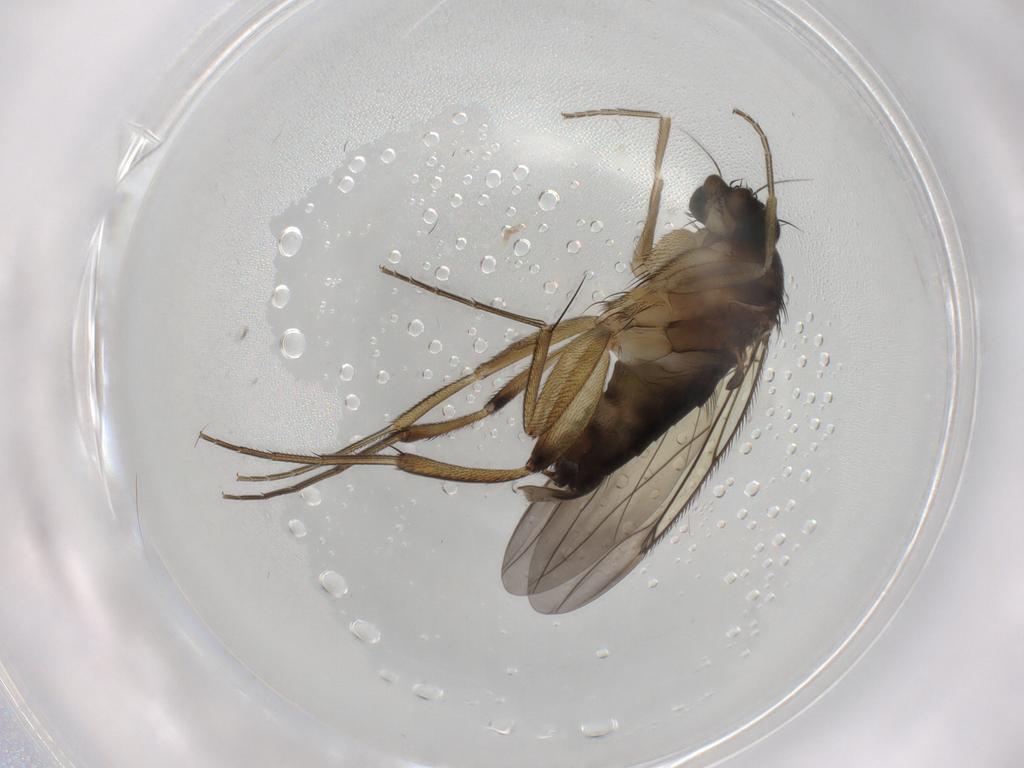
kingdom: Animalia
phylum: Arthropoda
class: Insecta
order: Diptera
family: Phoridae
